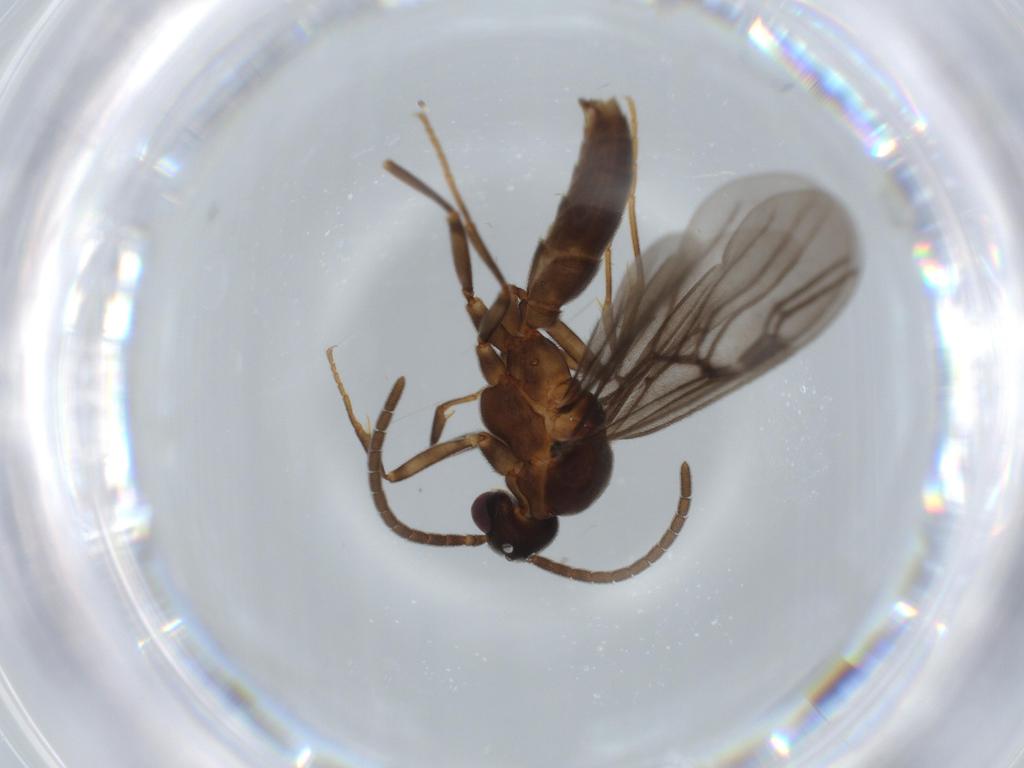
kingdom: Animalia
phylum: Arthropoda
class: Insecta
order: Hymenoptera
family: Formicidae
